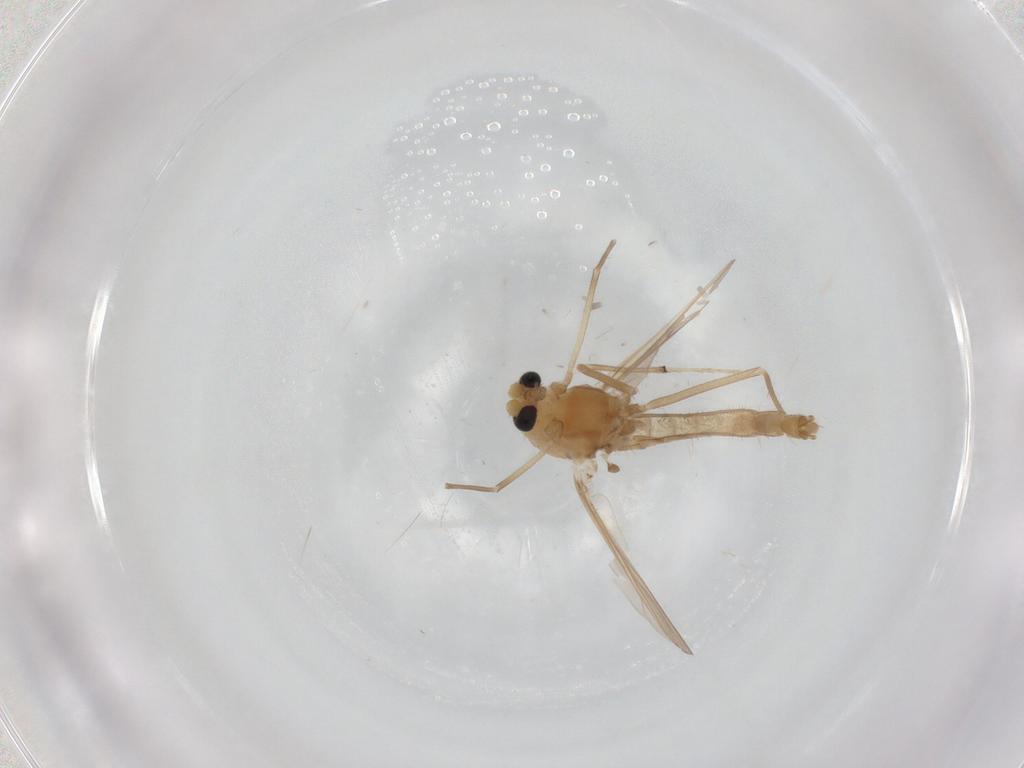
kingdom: Animalia
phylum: Arthropoda
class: Insecta
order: Diptera
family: Chironomidae
